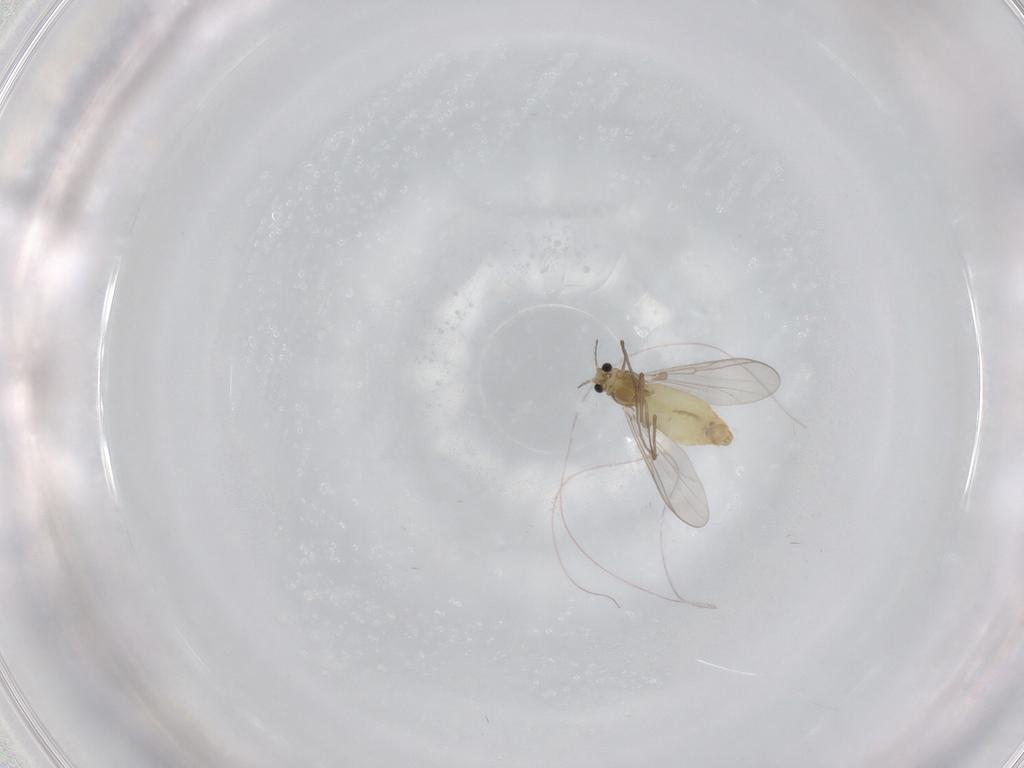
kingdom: Animalia
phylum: Arthropoda
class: Insecta
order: Diptera
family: Chironomidae
